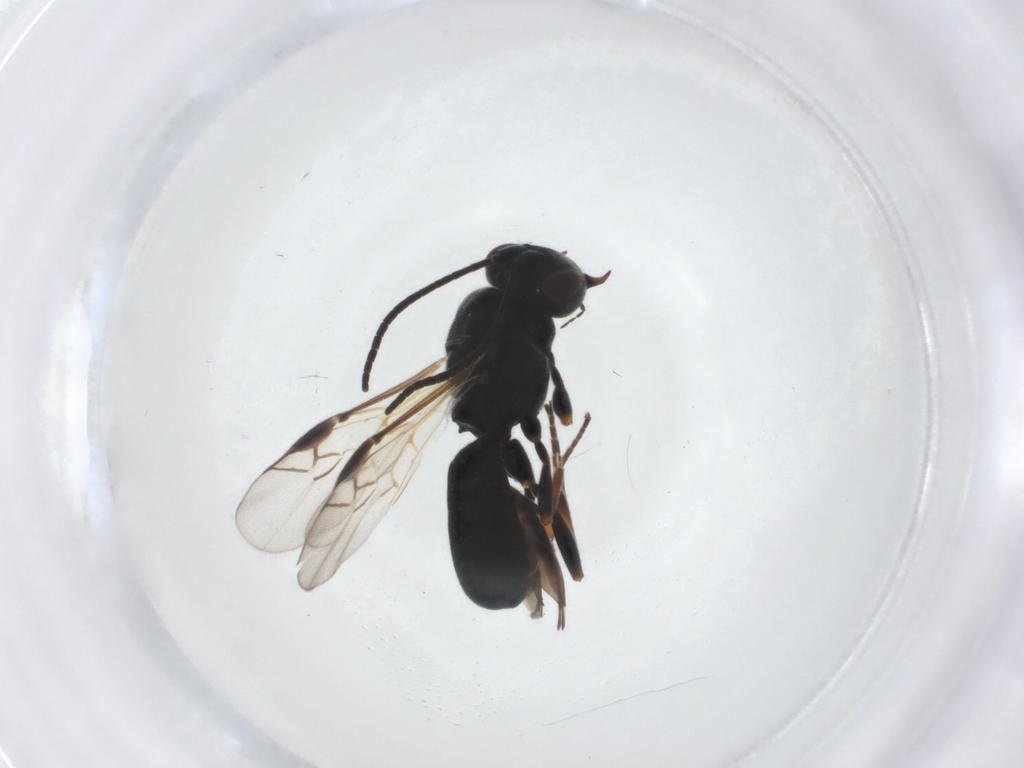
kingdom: Animalia
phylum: Arthropoda
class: Insecta
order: Hymenoptera
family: Braconidae
